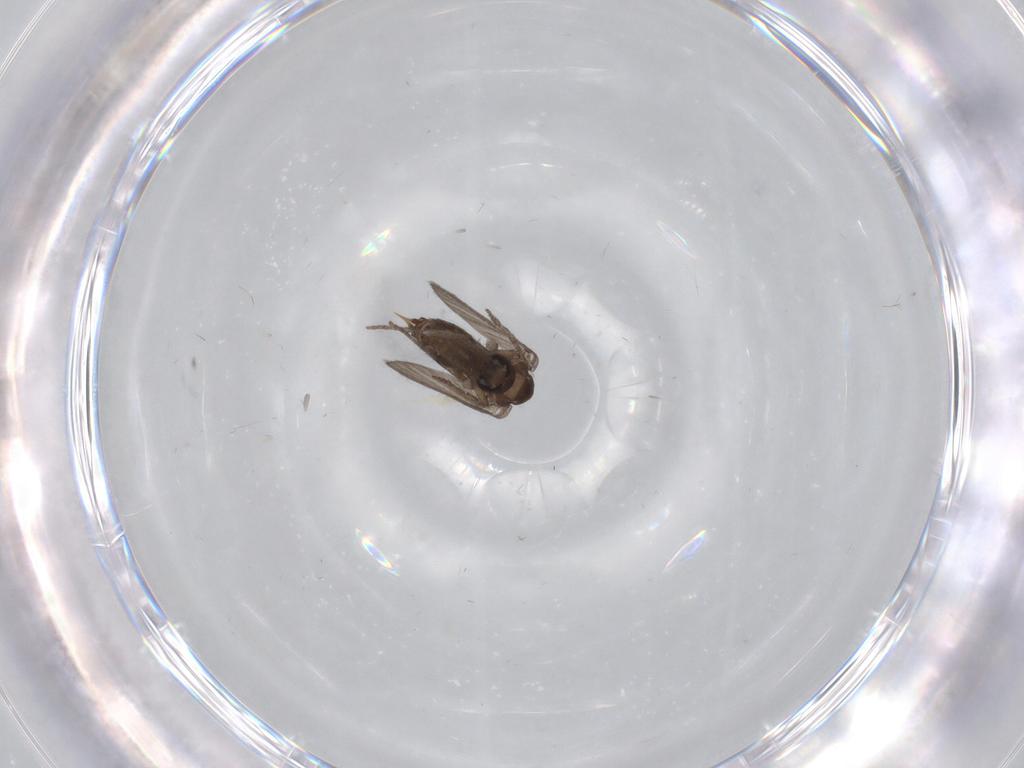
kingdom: Animalia
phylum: Arthropoda
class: Insecta
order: Diptera
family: Psychodidae
